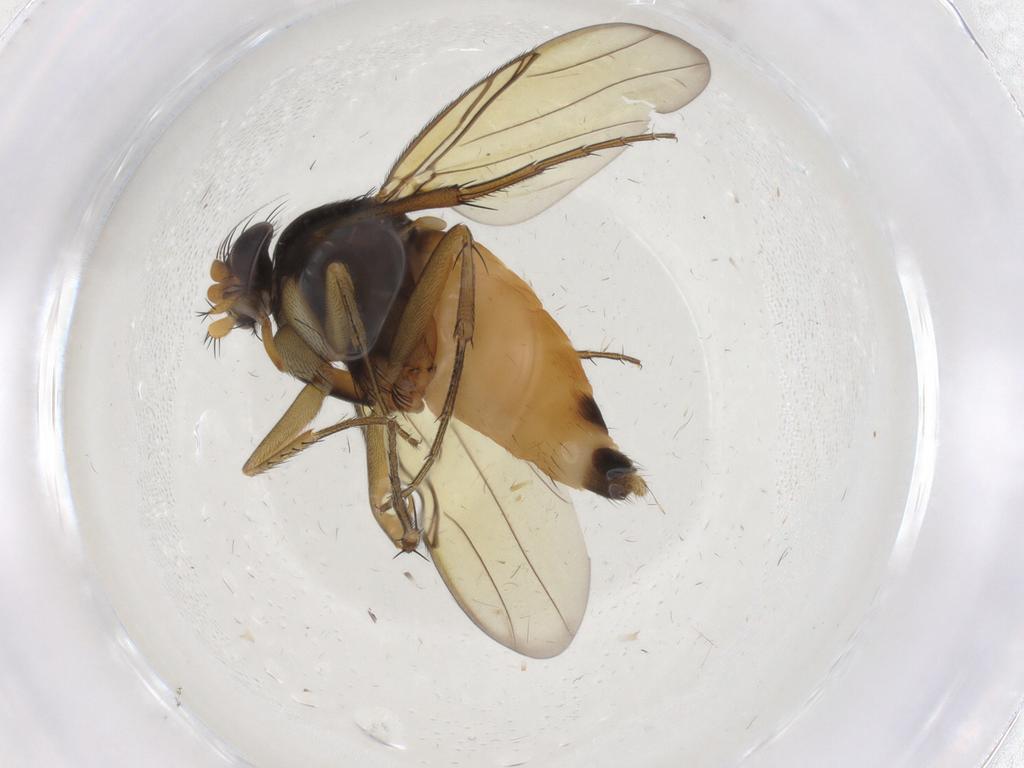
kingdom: Animalia
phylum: Arthropoda
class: Insecta
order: Diptera
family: Phoridae
